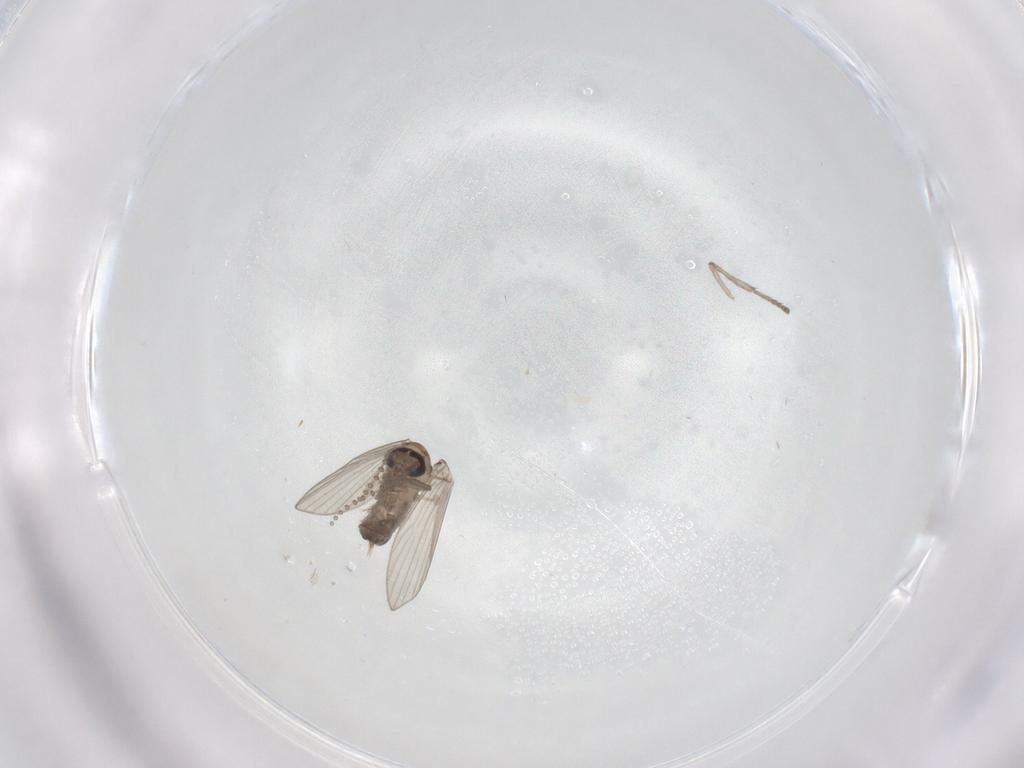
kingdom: Animalia
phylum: Arthropoda
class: Insecta
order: Diptera
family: Psychodidae
